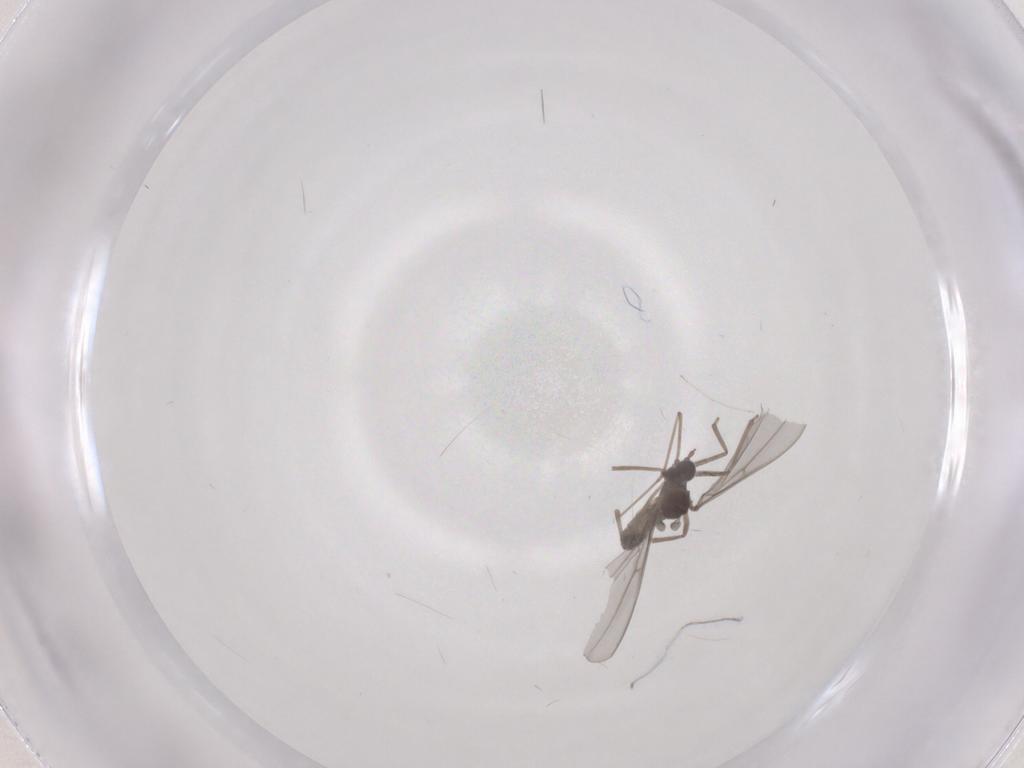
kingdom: Animalia
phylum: Arthropoda
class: Insecta
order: Diptera
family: Cecidomyiidae
